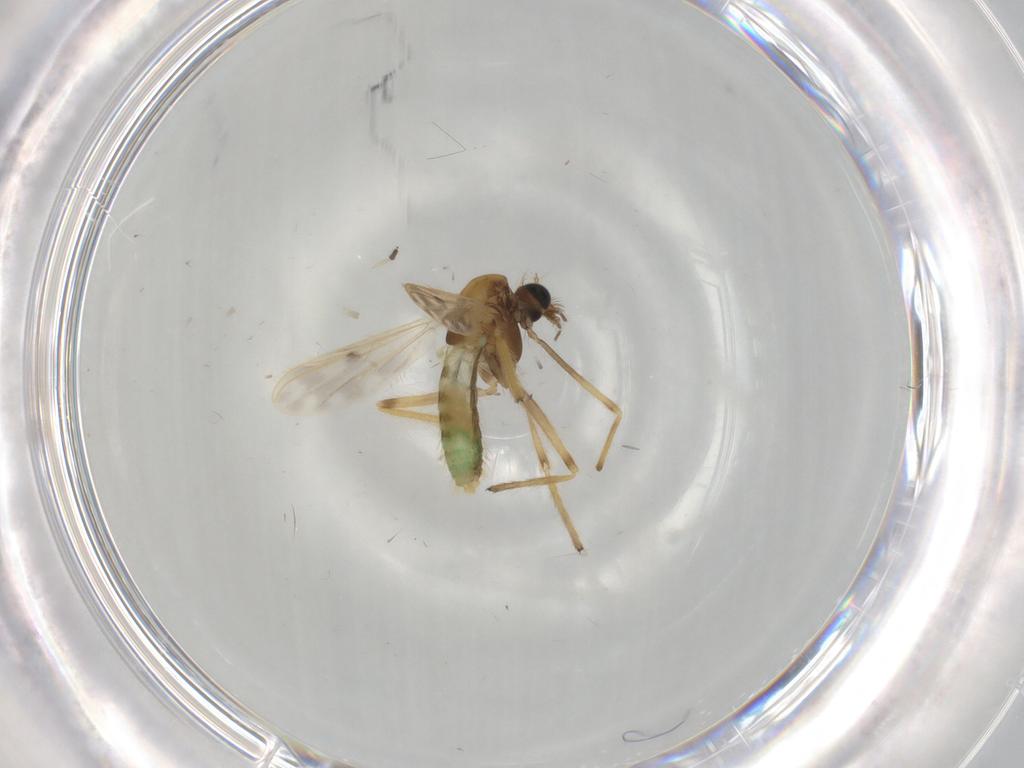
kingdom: Animalia
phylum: Arthropoda
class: Insecta
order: Diptera
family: Chironomidae
